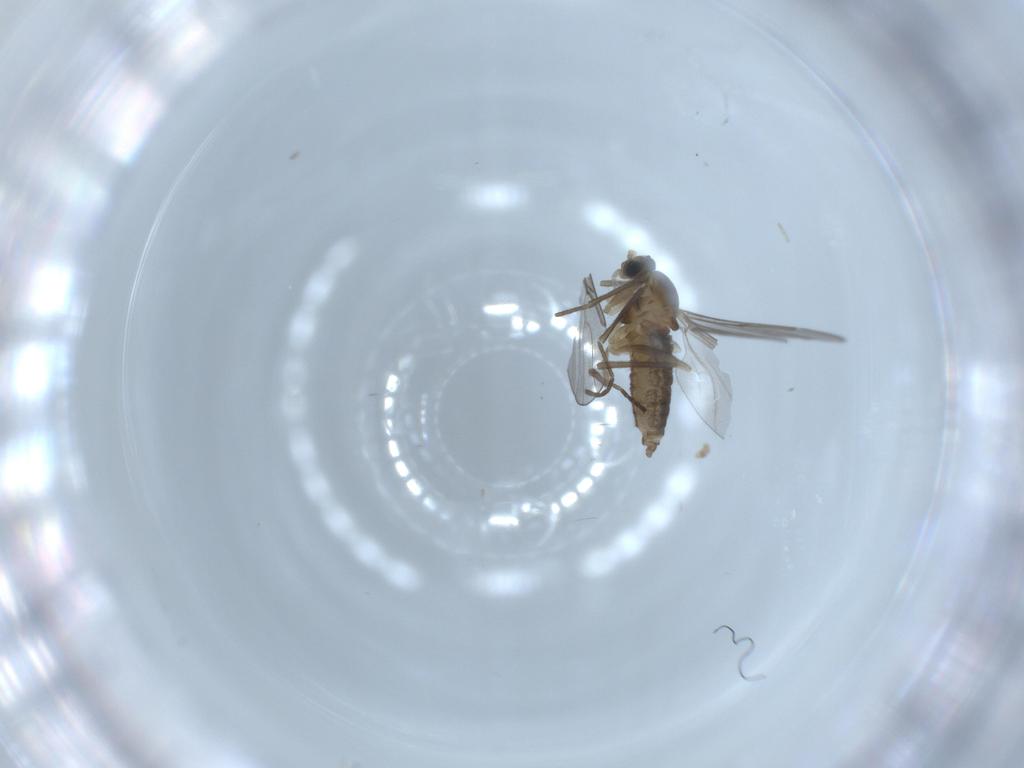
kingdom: Animalia
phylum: Arthropoda
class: Insecta
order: Diptera
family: Cecidomyiidae
